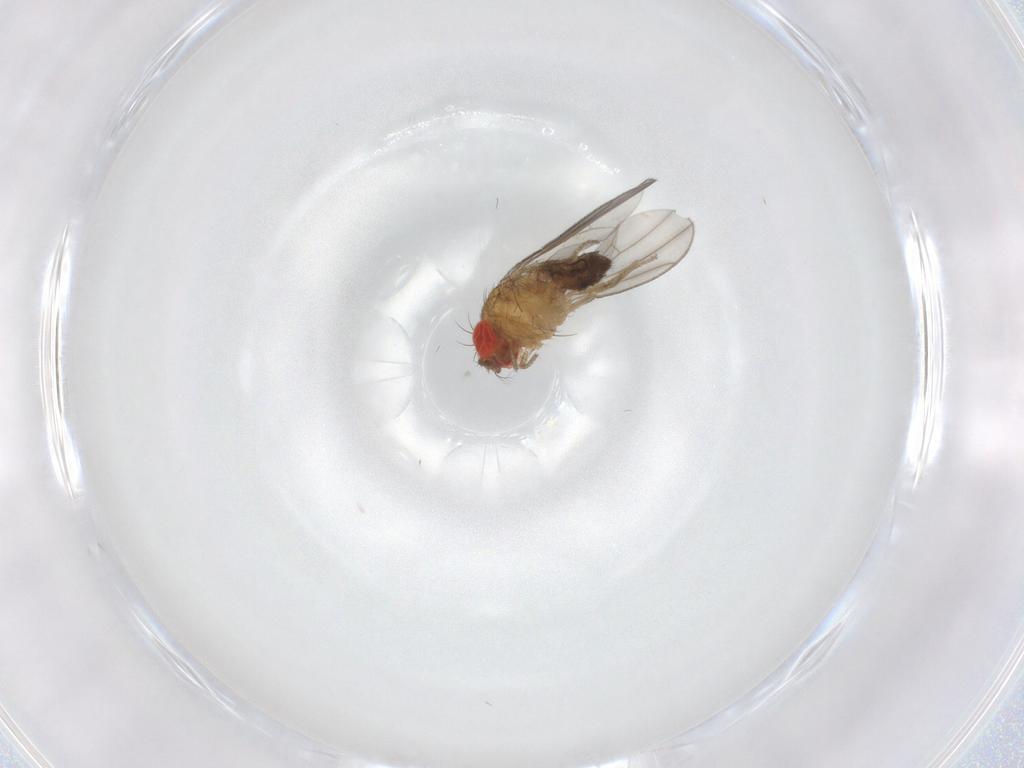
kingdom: Animalia
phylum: Arthropoda
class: Insecta
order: Diptera
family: Drosophilidae
